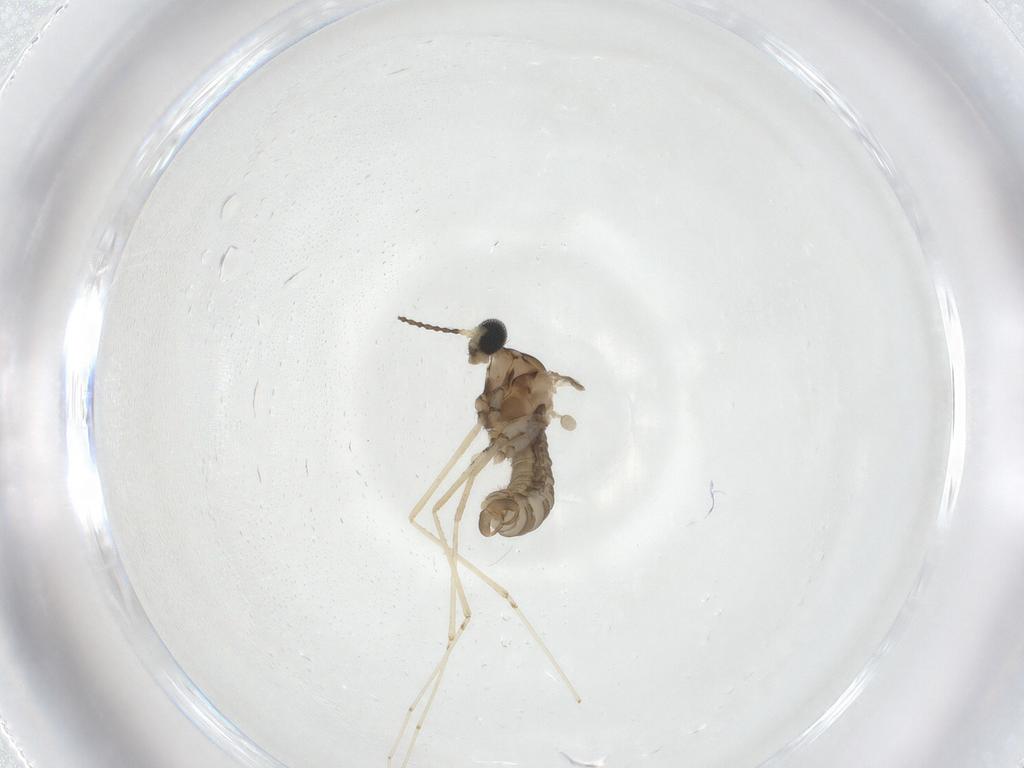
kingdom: Animalia
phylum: Arthropoda
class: Insecta
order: Diptera
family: Cecidomyiidae
